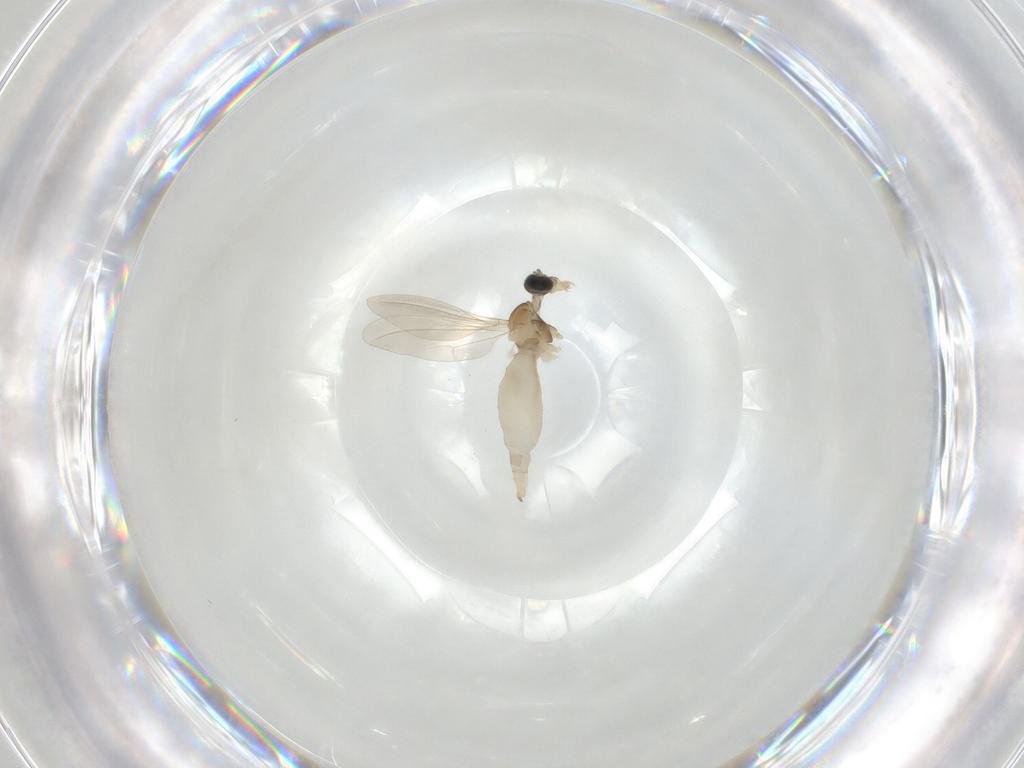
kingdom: Animalia
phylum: Arthropoda
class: Insecta
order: Diptera
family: Cecidomyiidae
